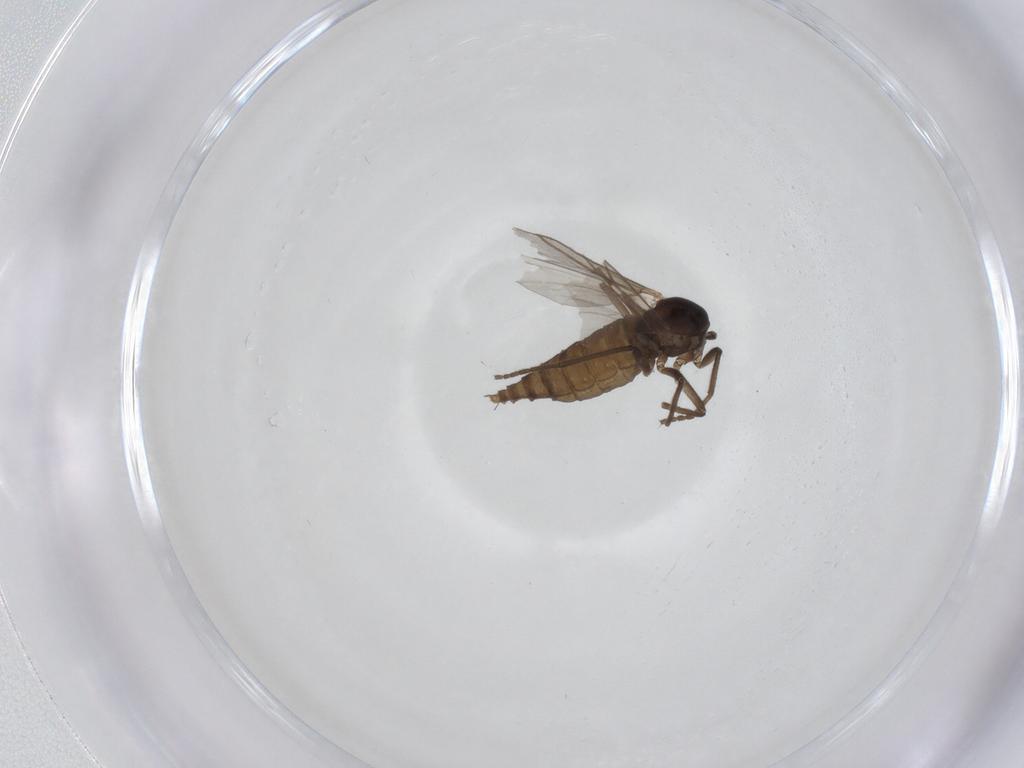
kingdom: Animalia
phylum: Arthropoda
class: Insecta
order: Diptera
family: Cecidomyiidae
